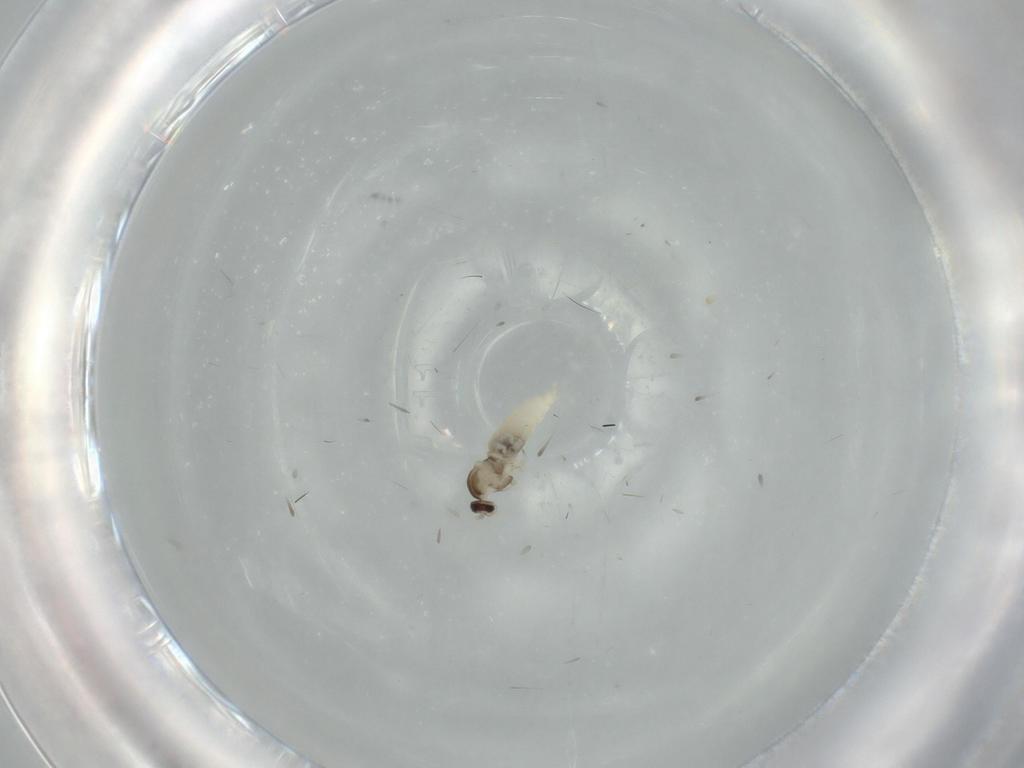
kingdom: Animalia
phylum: Arthropoda
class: Insecta
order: Diptera
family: Cecidomyiidae
